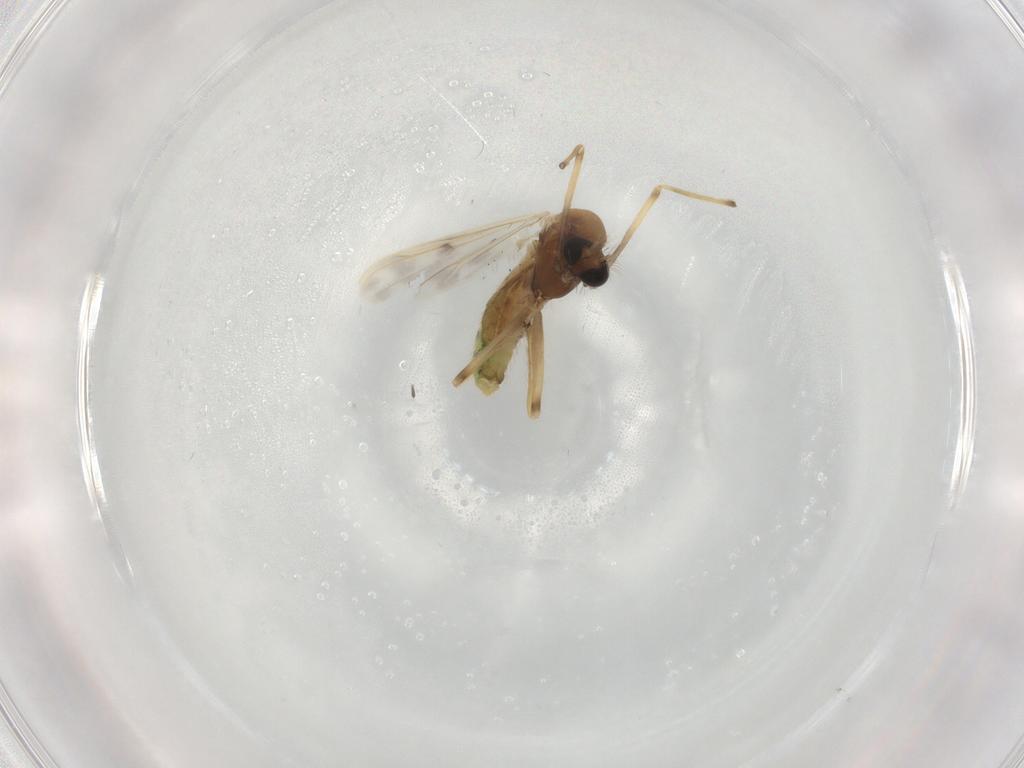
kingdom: Animalia
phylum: Arthropoda
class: Insecta
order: Diptera
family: Chironomidae
